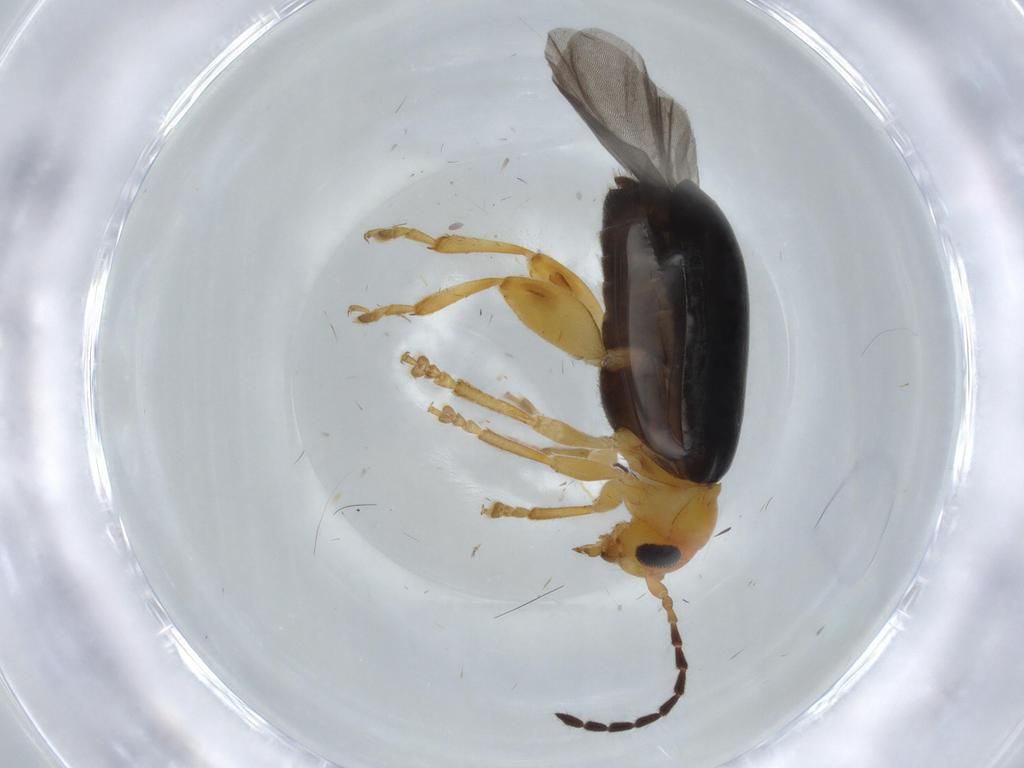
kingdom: Animalia
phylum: Arthropoda
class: Insecta
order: Coleoptera
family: Chrysomelidae
